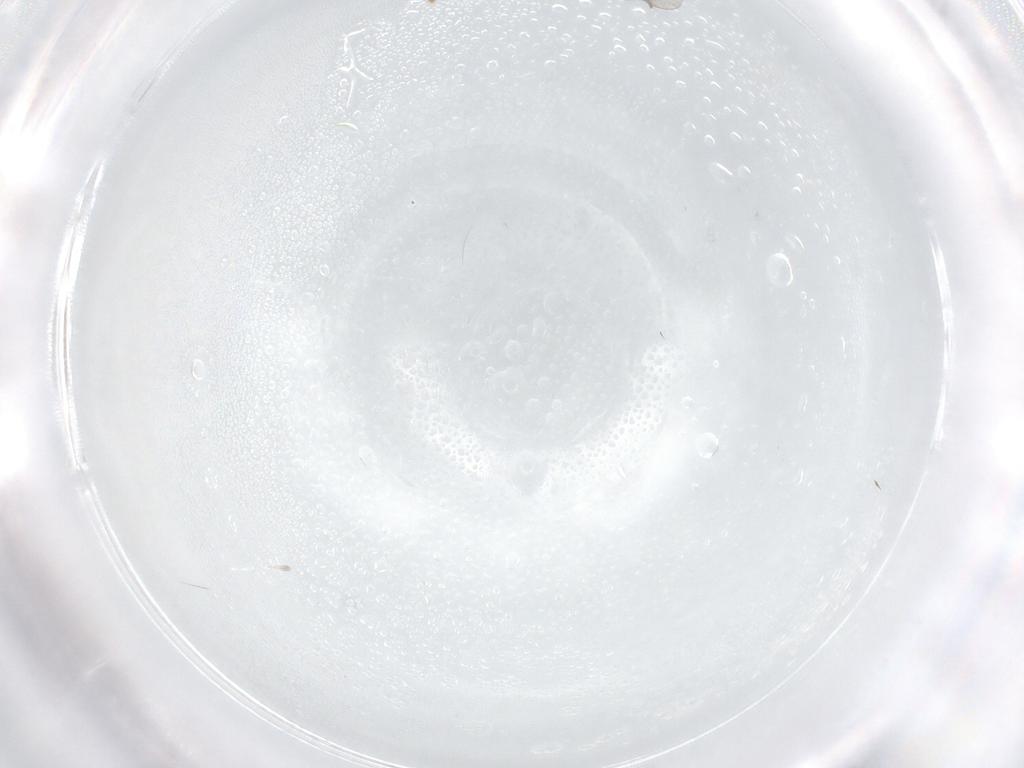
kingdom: Animalia
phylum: Arthropoda
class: Insecta
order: Diptera
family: Ceratopogonidae
